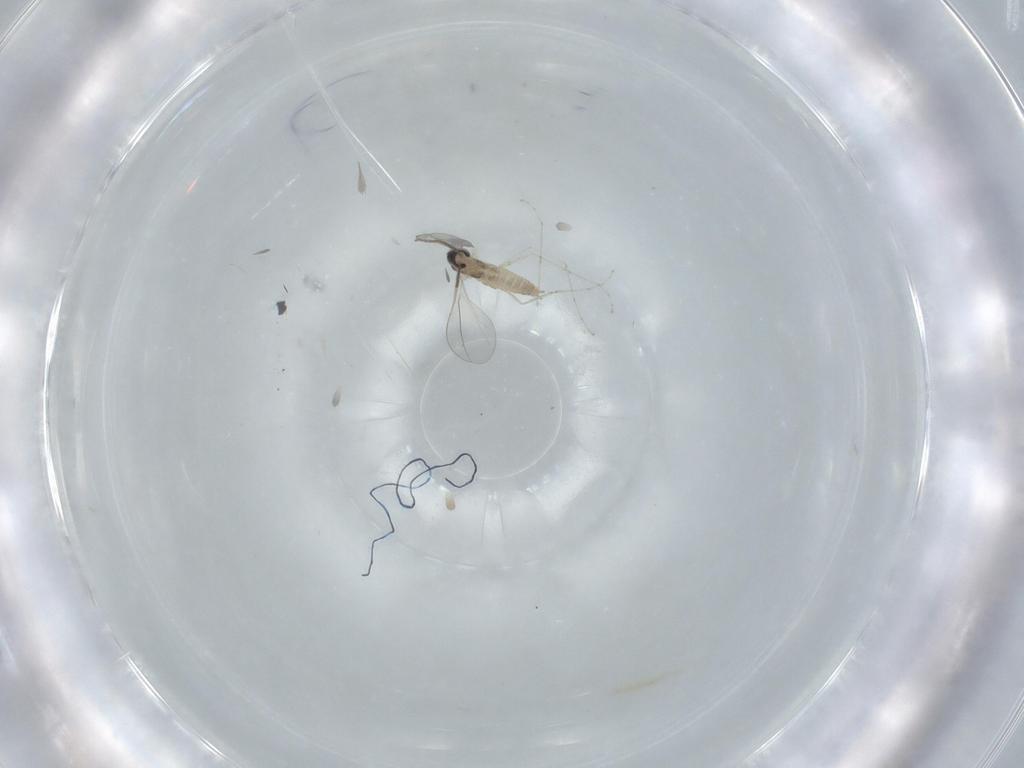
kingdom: Animalia
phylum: Arthropoda
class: Insecta
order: Diptera
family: Cecidomyiidae
